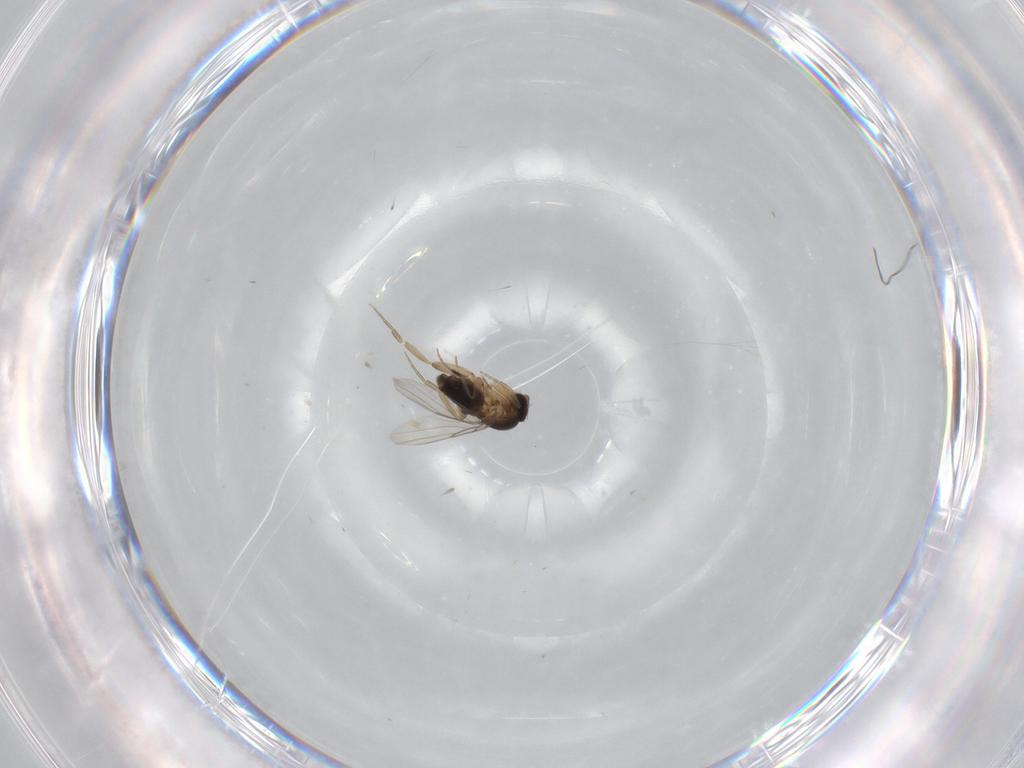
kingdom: Animalia
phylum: Arthropoda
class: Insecta
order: Diptera
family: Phoridae
